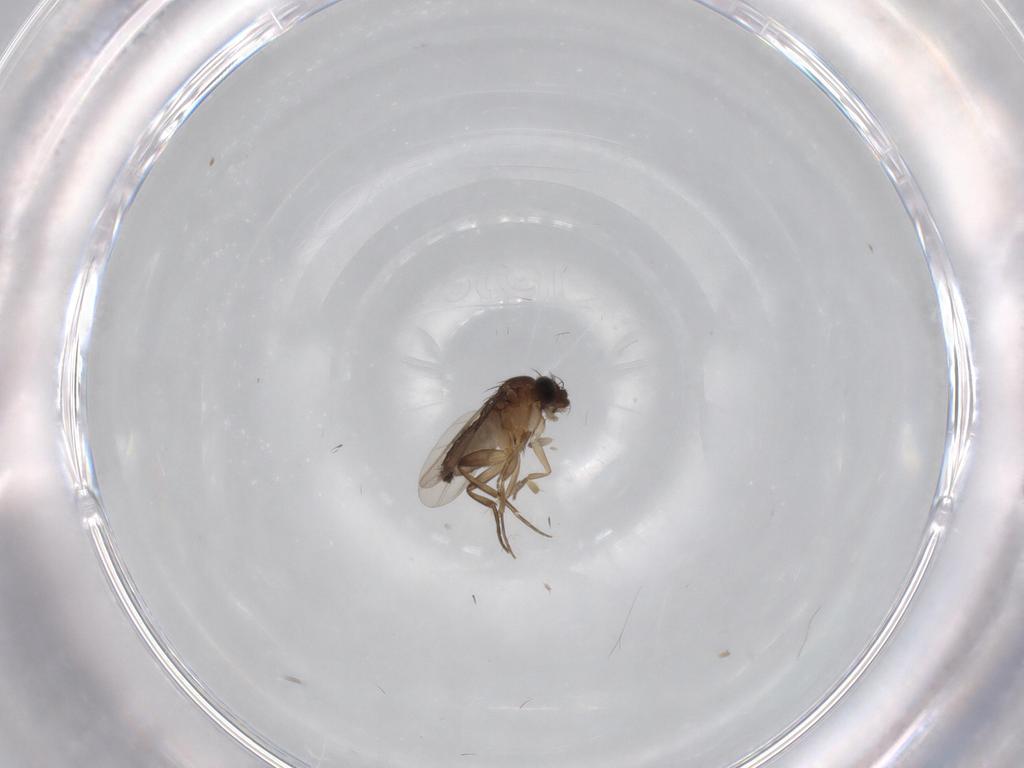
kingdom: Animalia
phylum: Arthropoda
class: Insecta
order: Diptera
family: Phoridae
